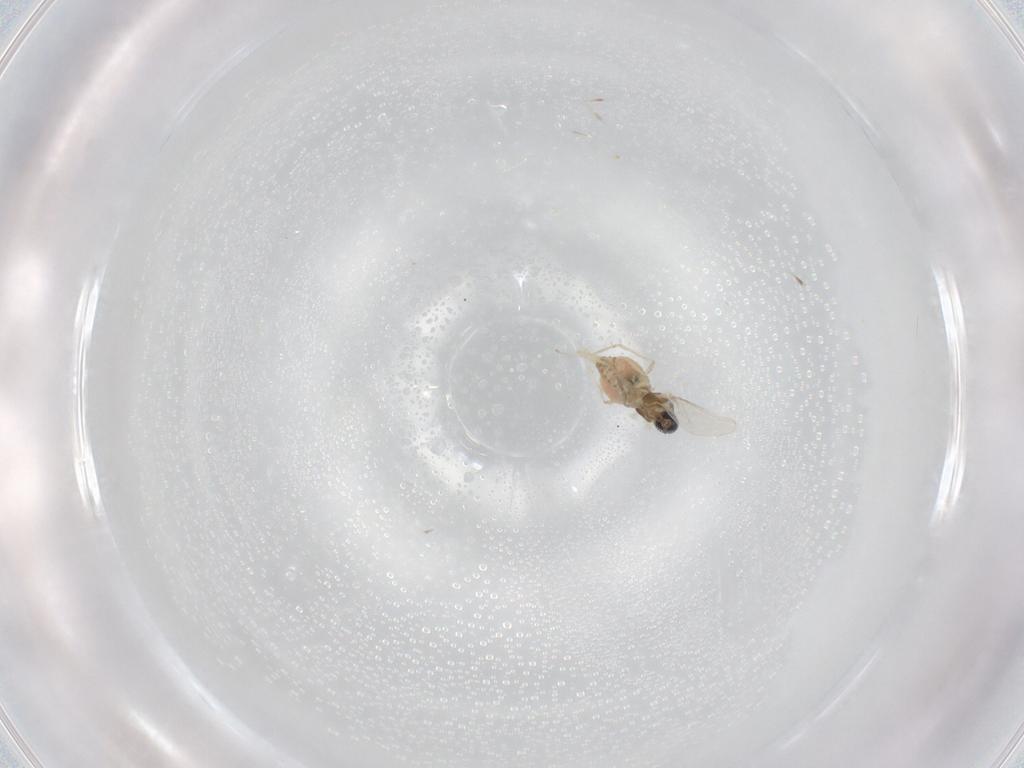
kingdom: Animalia
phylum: Arthropoda
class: Insecta
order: Diptera
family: Cecidomyiidae
